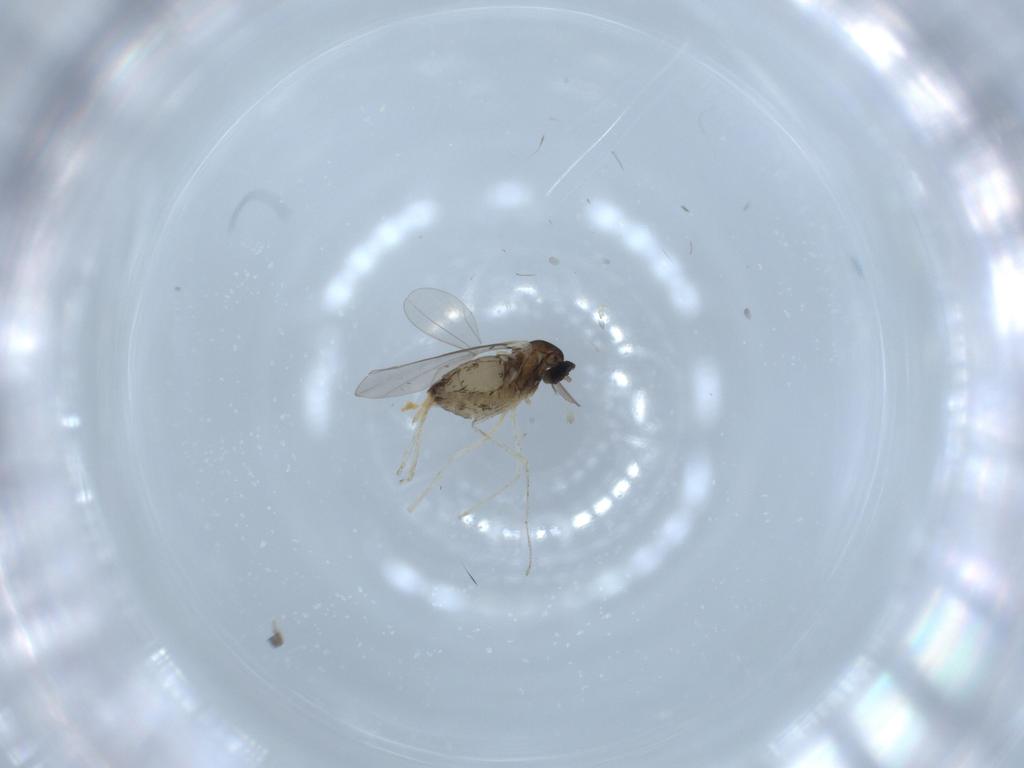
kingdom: Animalia
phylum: Arthropoda
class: Insecta
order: Diptera
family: Cecidomyiidae
